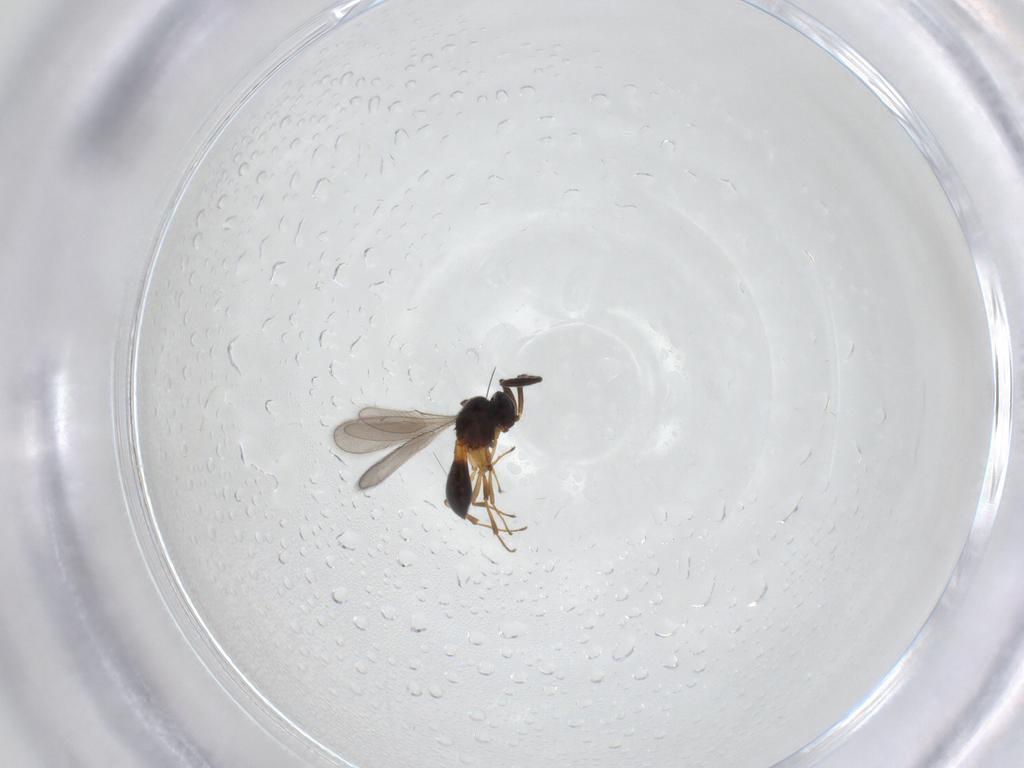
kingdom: Animalia
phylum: Arthropoda
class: Insecta
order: Hymenoptera
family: Scelionidae
